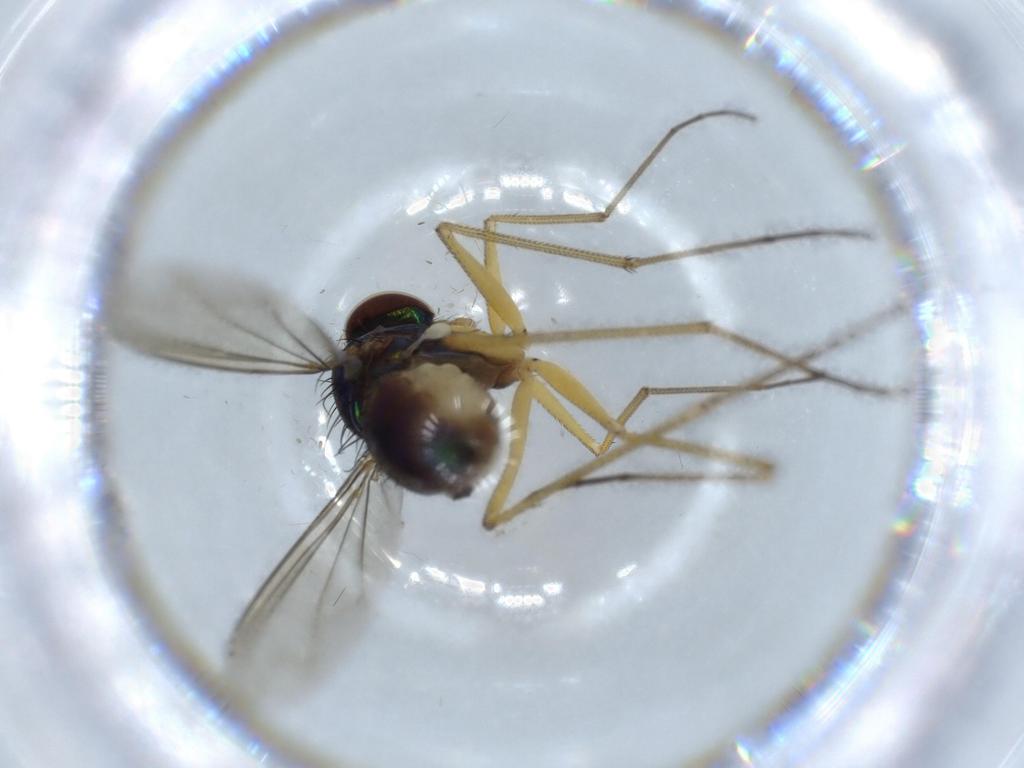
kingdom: Animalia
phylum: Arthropoda
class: Insecta
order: Diptera
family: Dolichopodidae
